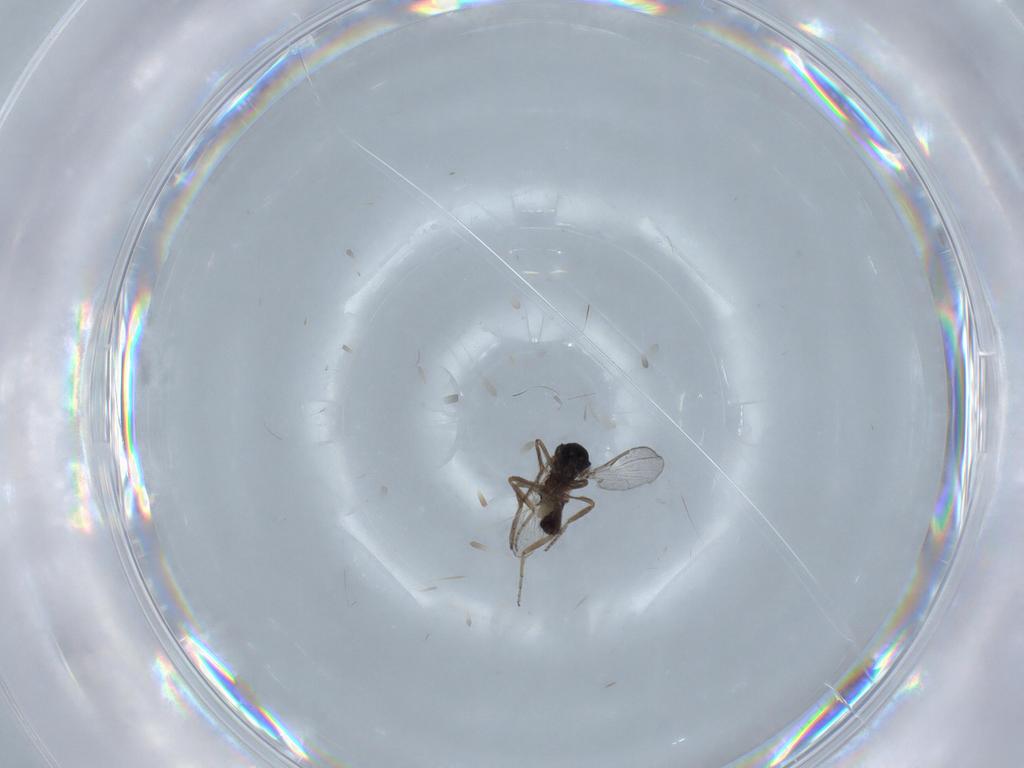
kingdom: Animalia
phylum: Arthropoda
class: Insecta
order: Diptera
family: Psychodidae
